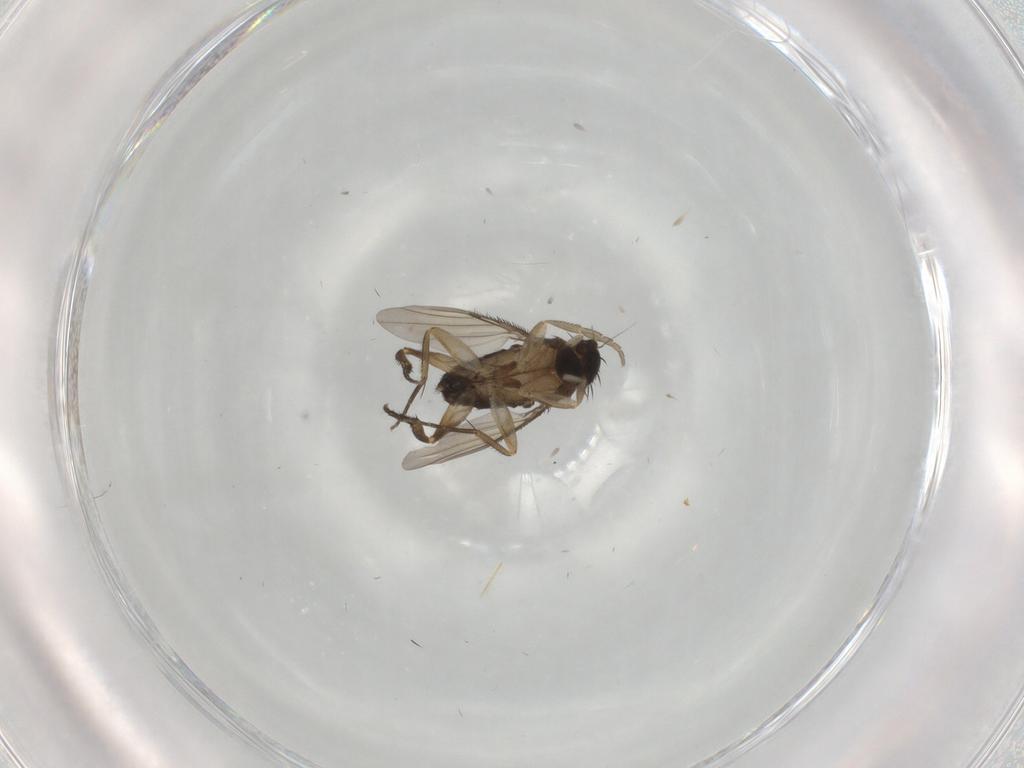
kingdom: Animalia
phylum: Arthropoda
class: Insecta
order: Diptera
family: Phoridae
